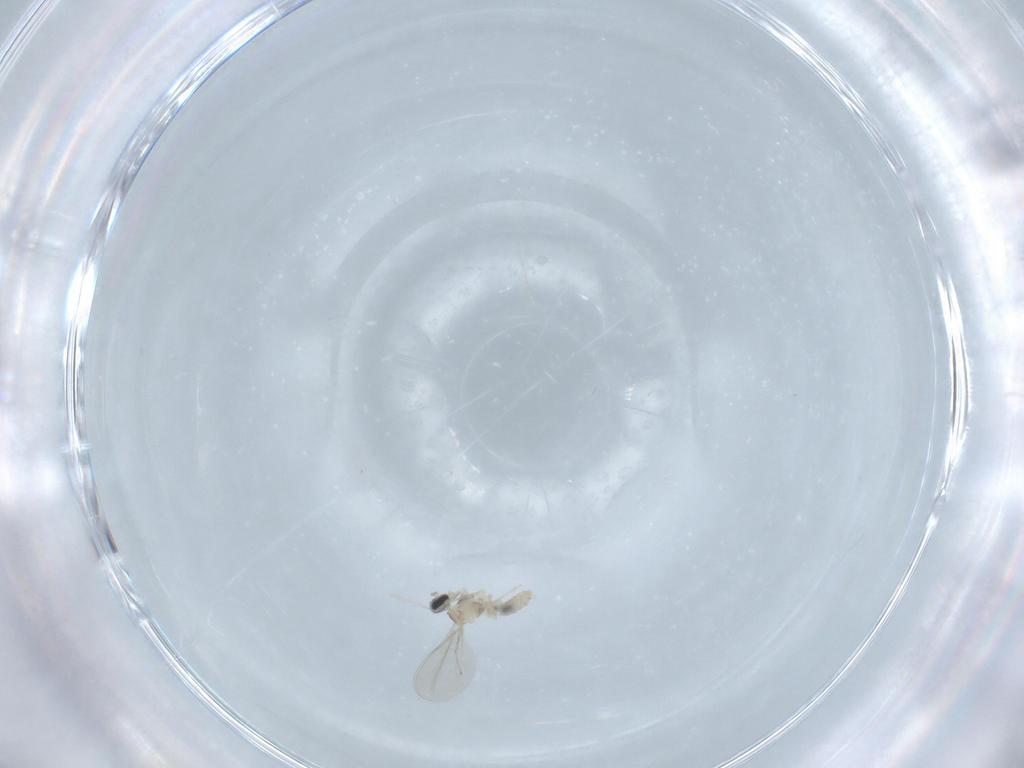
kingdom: Animalia
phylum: Arthropoda
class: Insecta
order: Diptera
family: Cecidomyiidae
